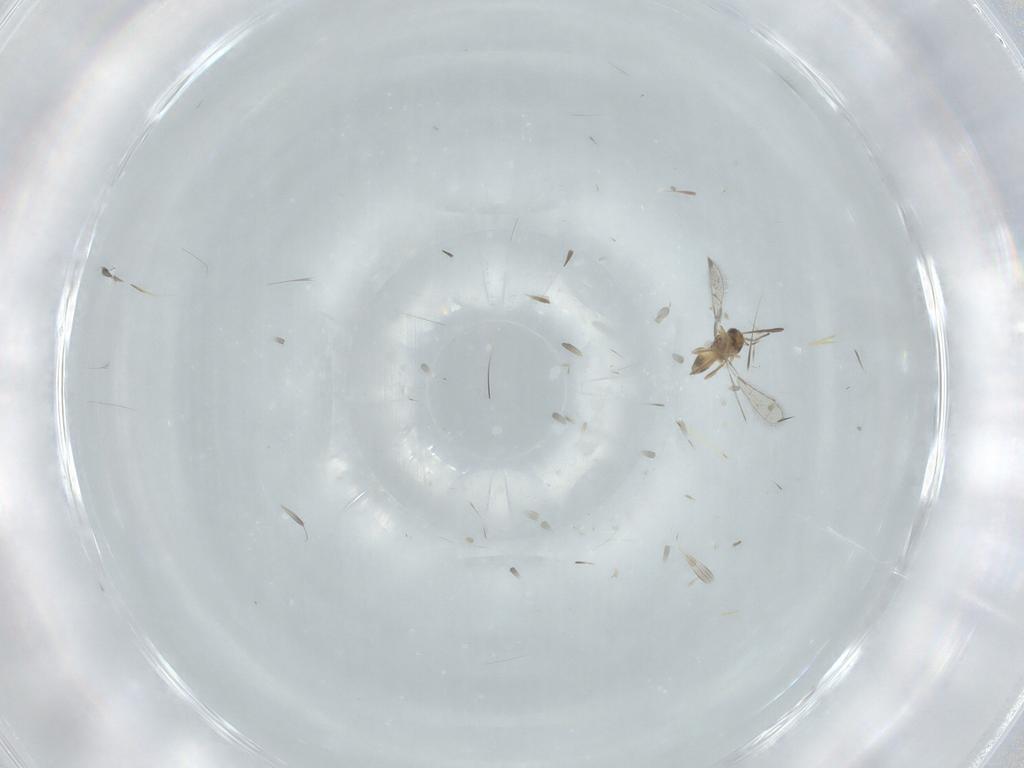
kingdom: Animalia
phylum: Arthropoda
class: Insecta
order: Hymenoptera
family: Mymaridae
